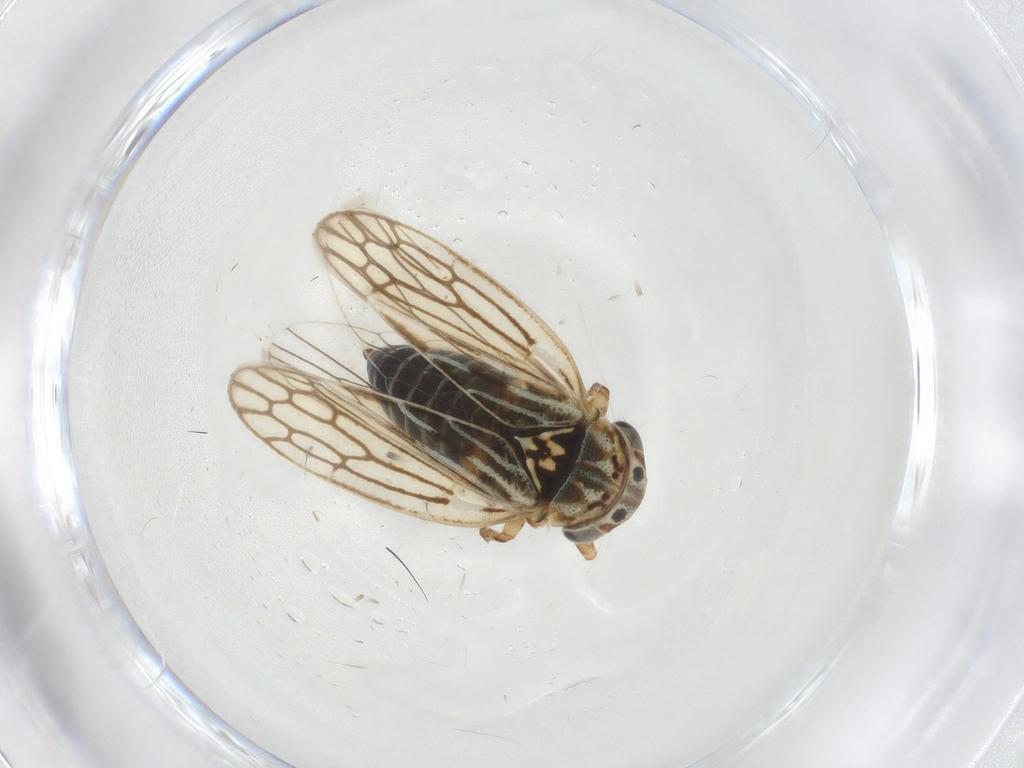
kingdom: Animalia
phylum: Arthropoda
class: Insecta
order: Hemiptera
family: Cicadellidae
